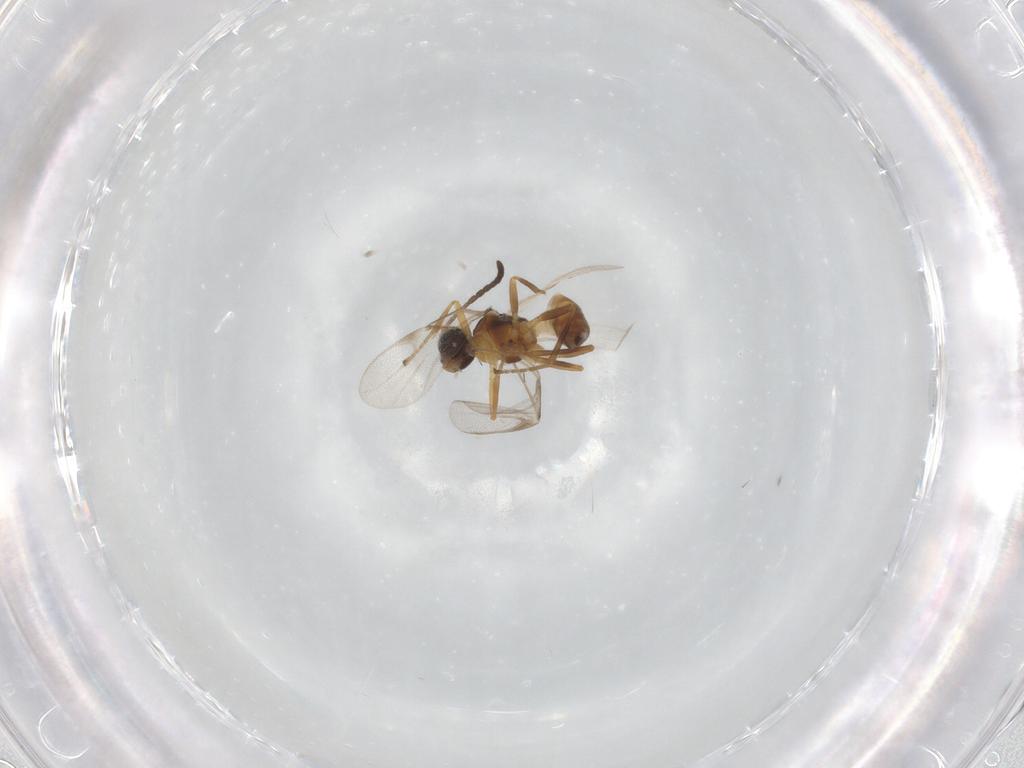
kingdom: Animalia
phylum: Arthropoda
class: Insecta
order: Hymenoptera
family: Braconidae
